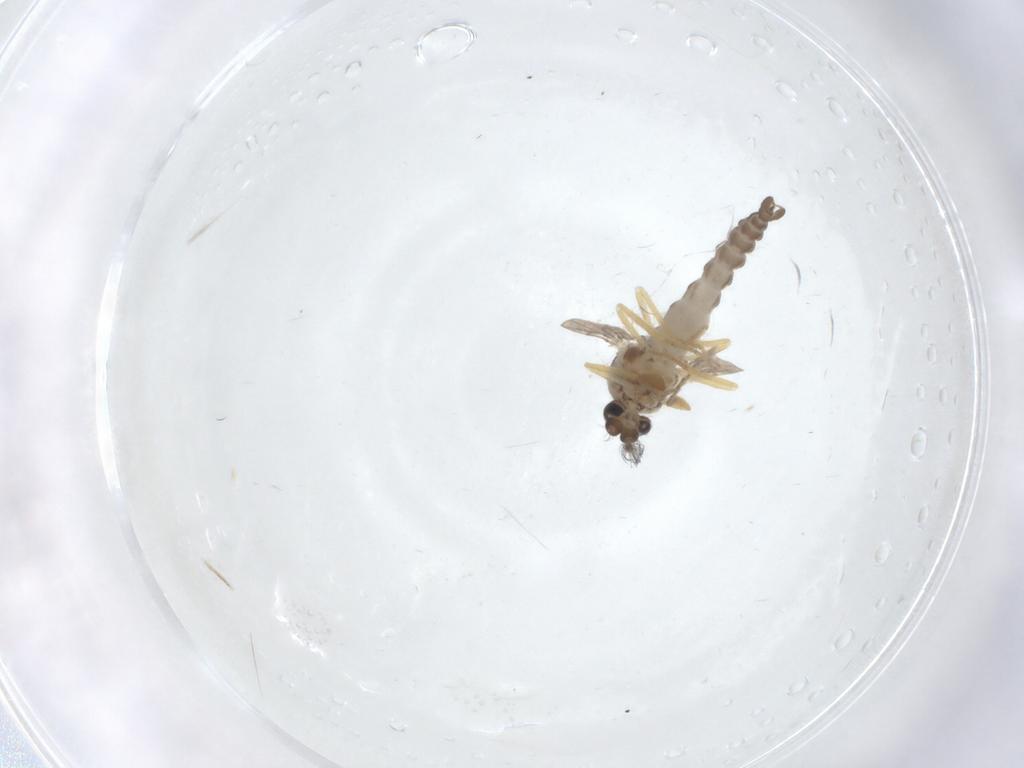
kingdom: Animalia
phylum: Arthropoda
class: Insecta
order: Diptera
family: Ceratopogonidae
